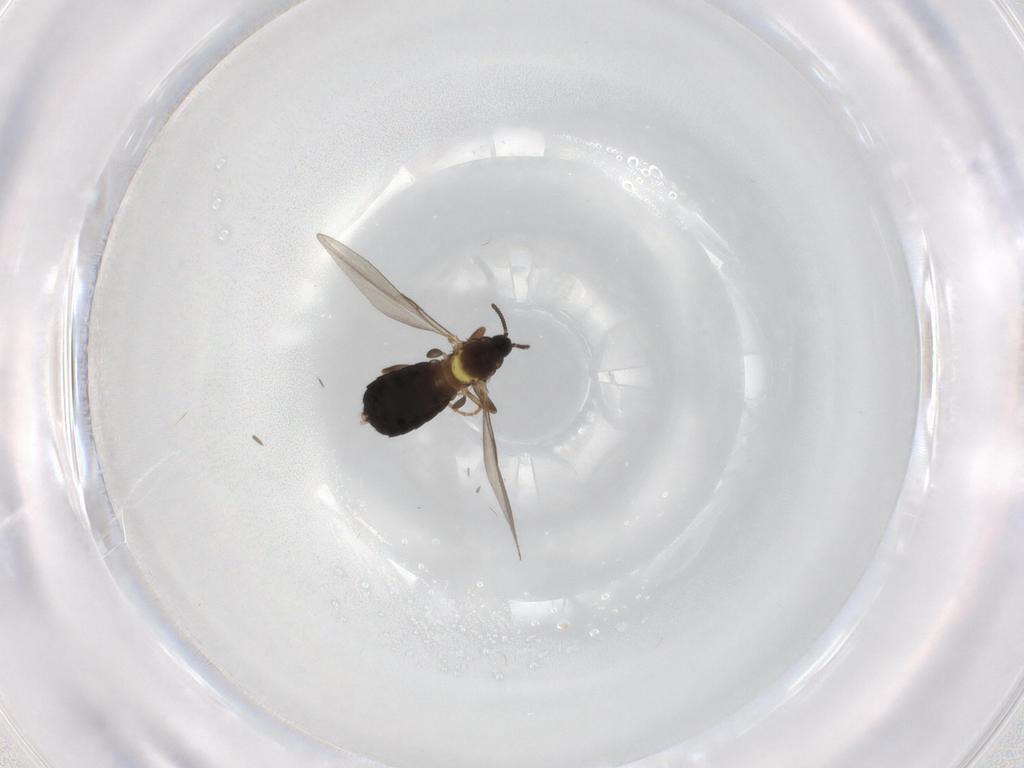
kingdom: Animalia
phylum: Arthropoda
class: Insecta
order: Diptera
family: Scatopsidae
